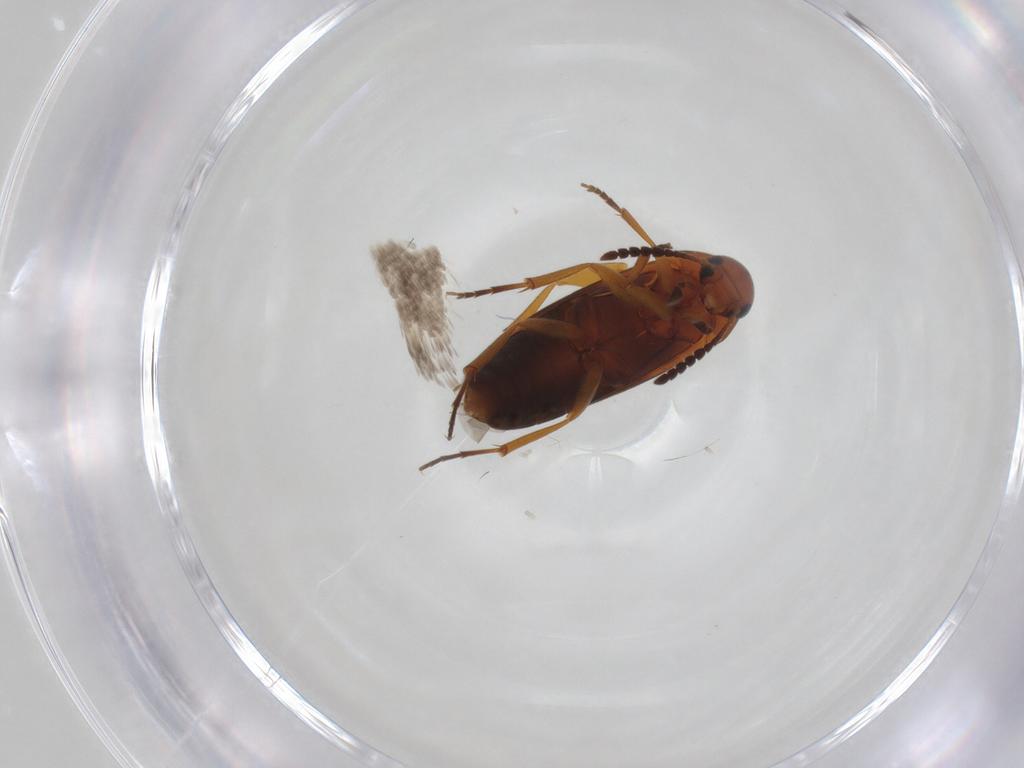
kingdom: Animalia
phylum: Arthropoda
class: Insecta
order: Coleoptera
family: Scraptiidae
